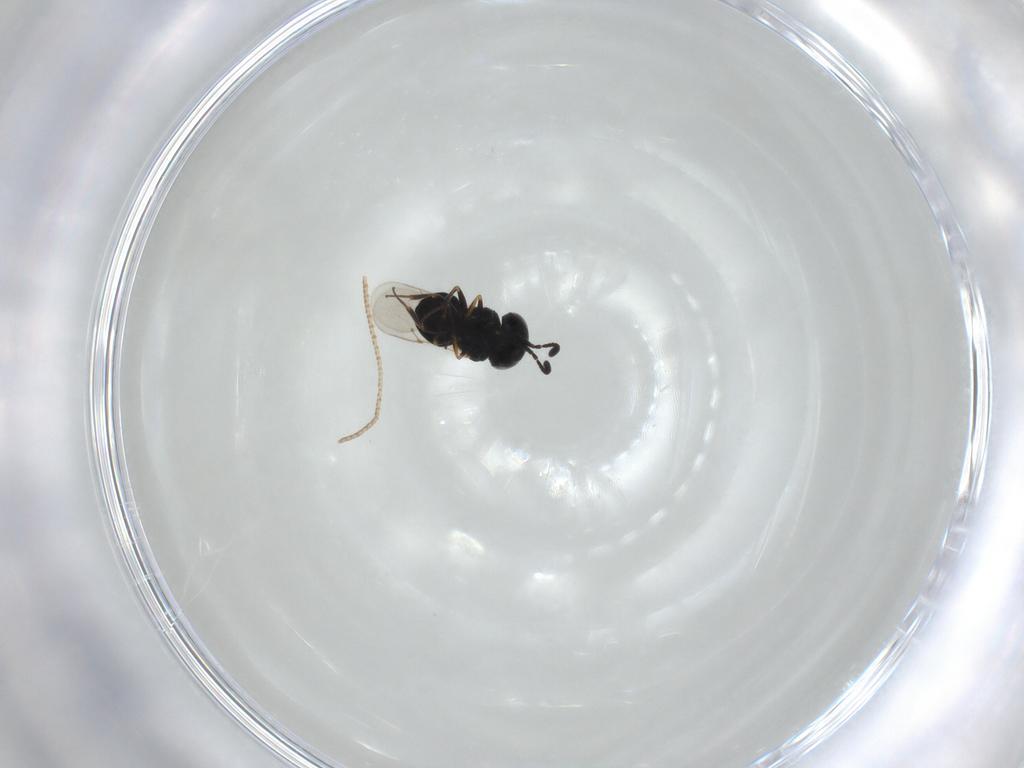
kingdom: Animalia
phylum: Arthropoda
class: Insecta
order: Hymenoptera
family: Scelionidae
